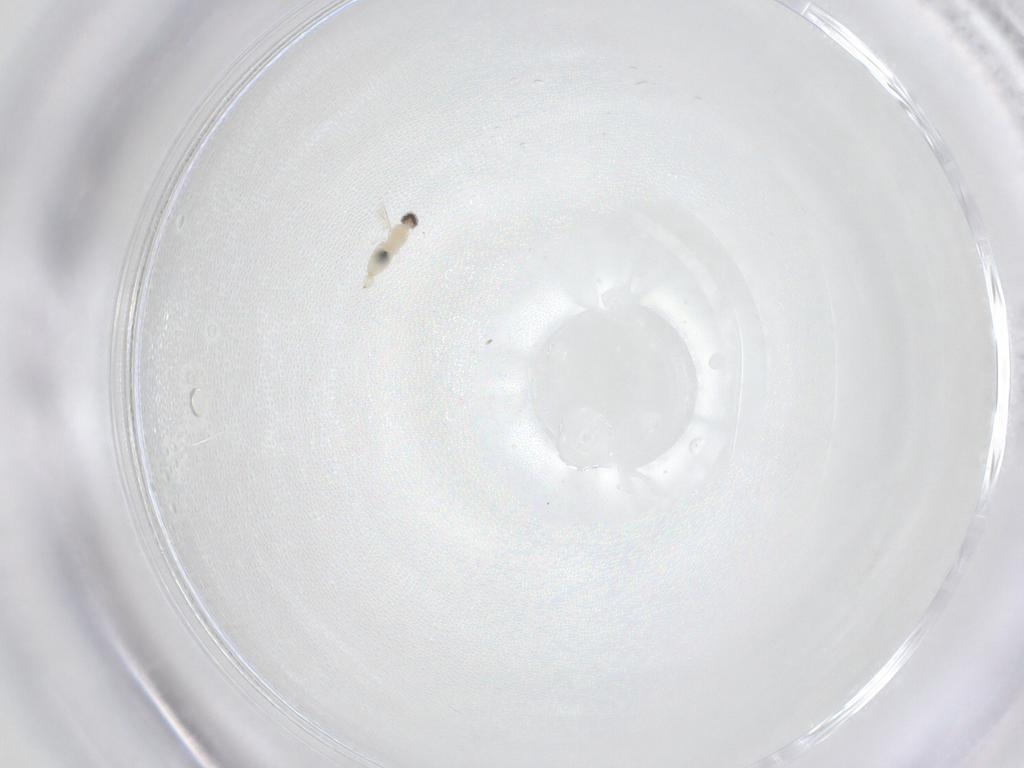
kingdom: Animalia
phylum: Arthropoda
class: Insecta
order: Diptera
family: Cecidomyiidae
